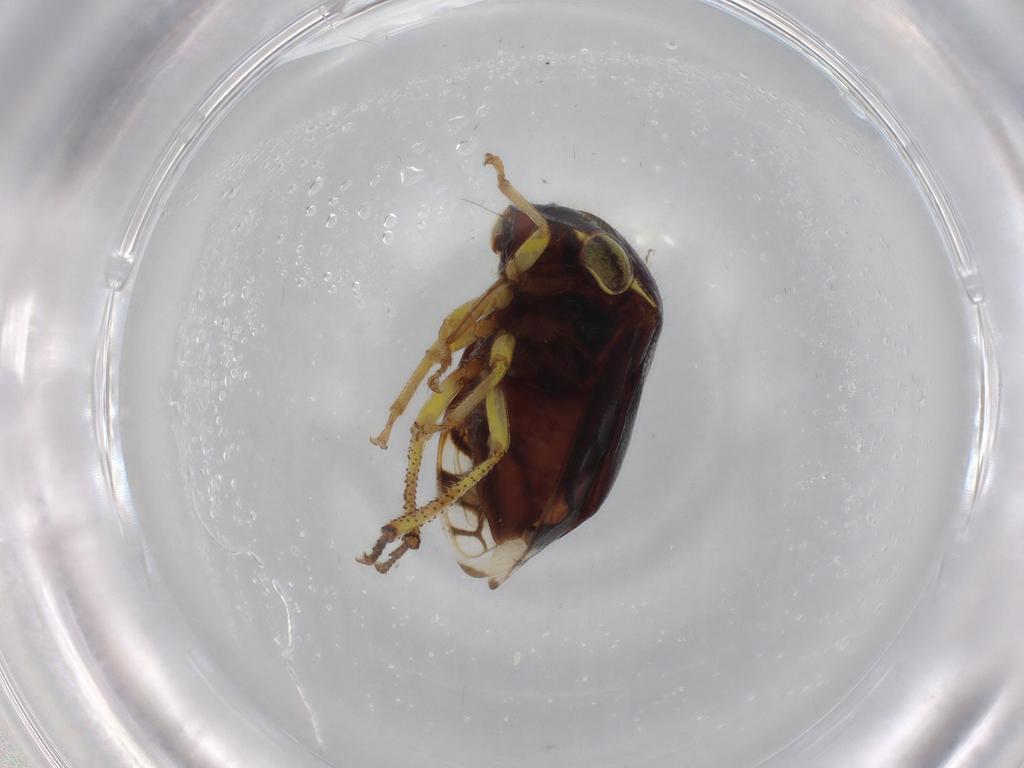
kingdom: Animalia
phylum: Arthropoda
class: Insecta
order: Hemiptera
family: Membracidae
